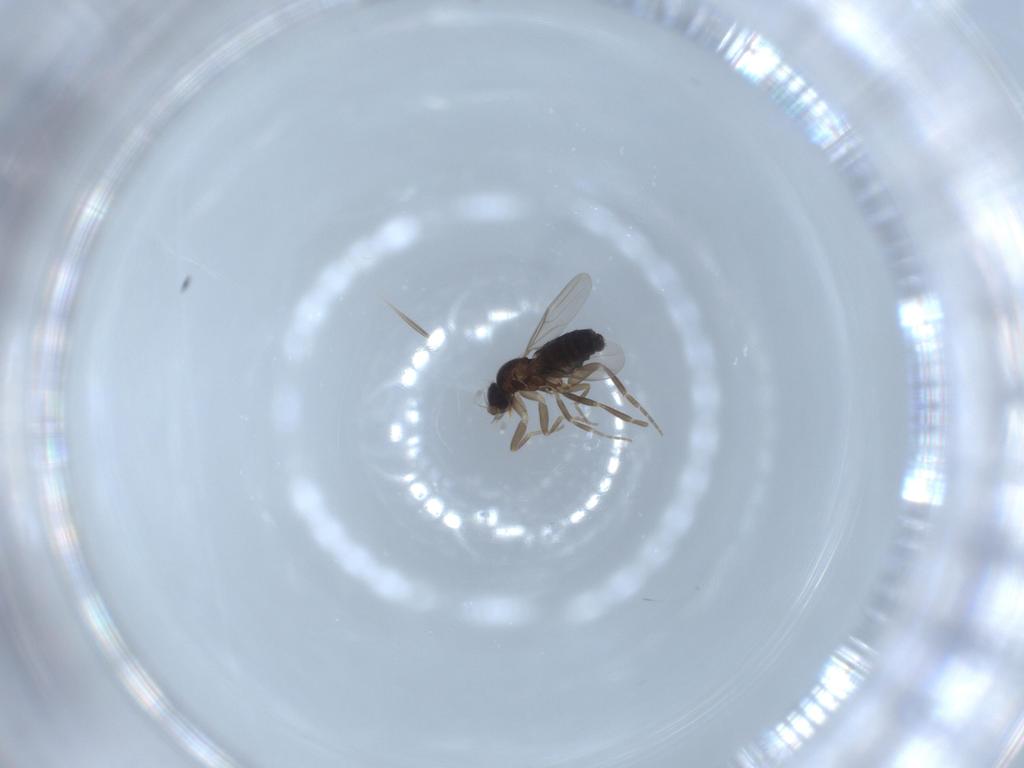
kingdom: Animalia
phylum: Arthropoda
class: Insecta
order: Diptera
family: Phoridae
